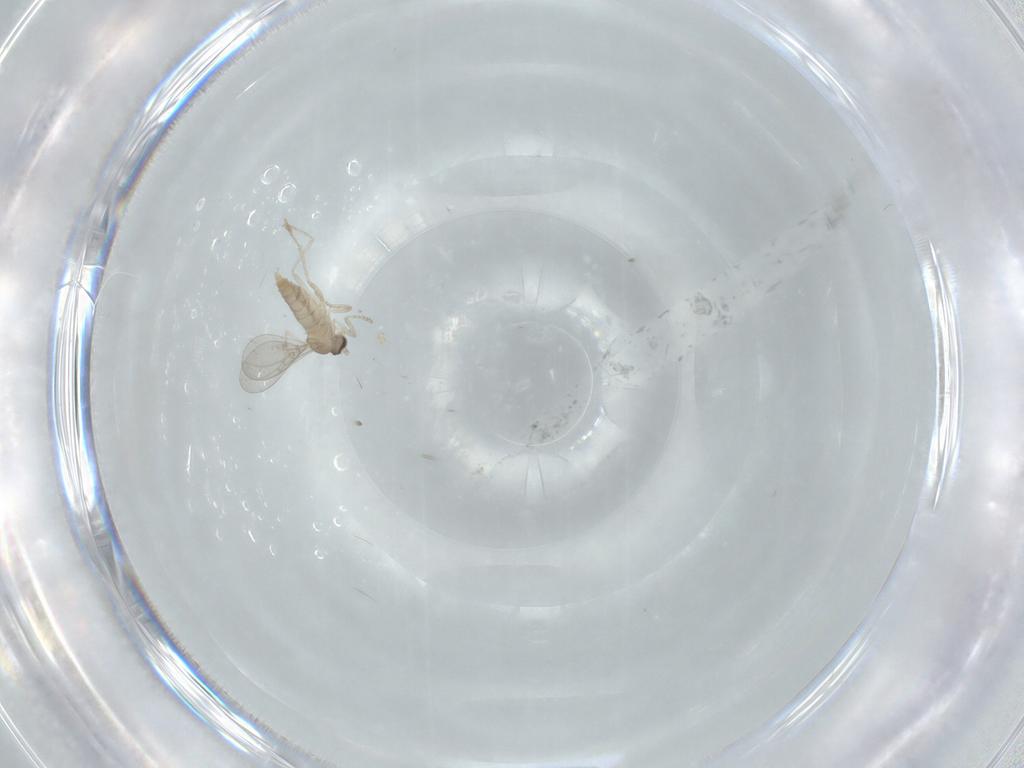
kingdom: Animalia
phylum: Arthropoda
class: Insecta
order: Diptera
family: Cecidomyiidae
